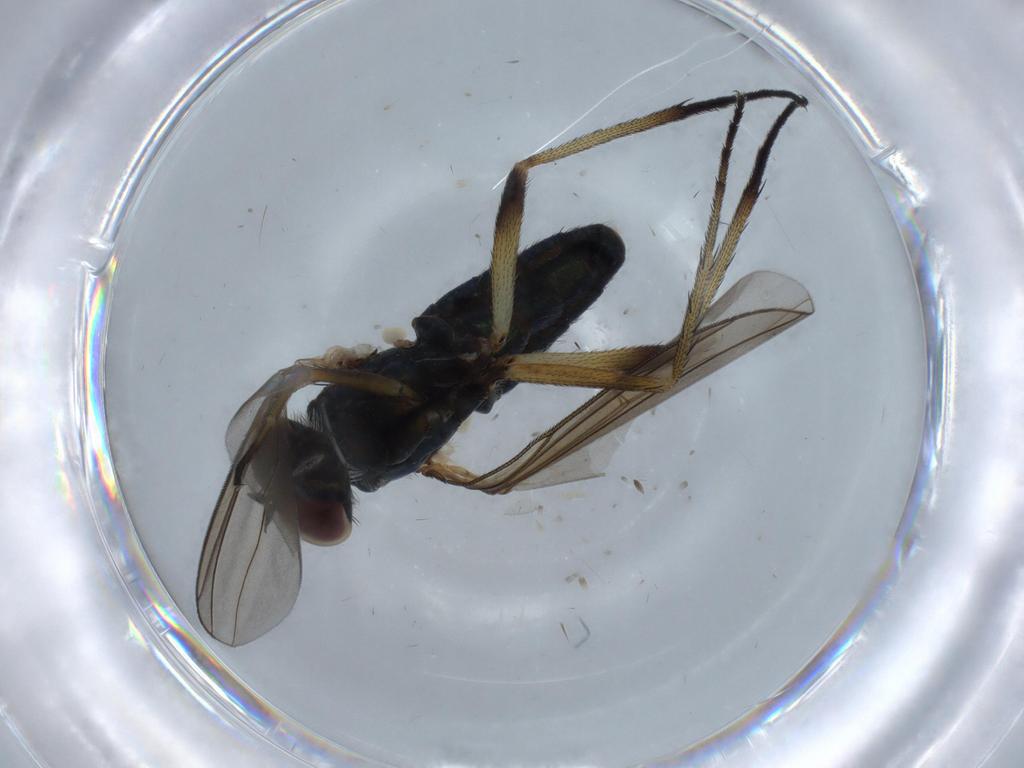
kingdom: Animalia
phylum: Arthropoda
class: Insecta
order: Diptera
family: Dolichopodidae
